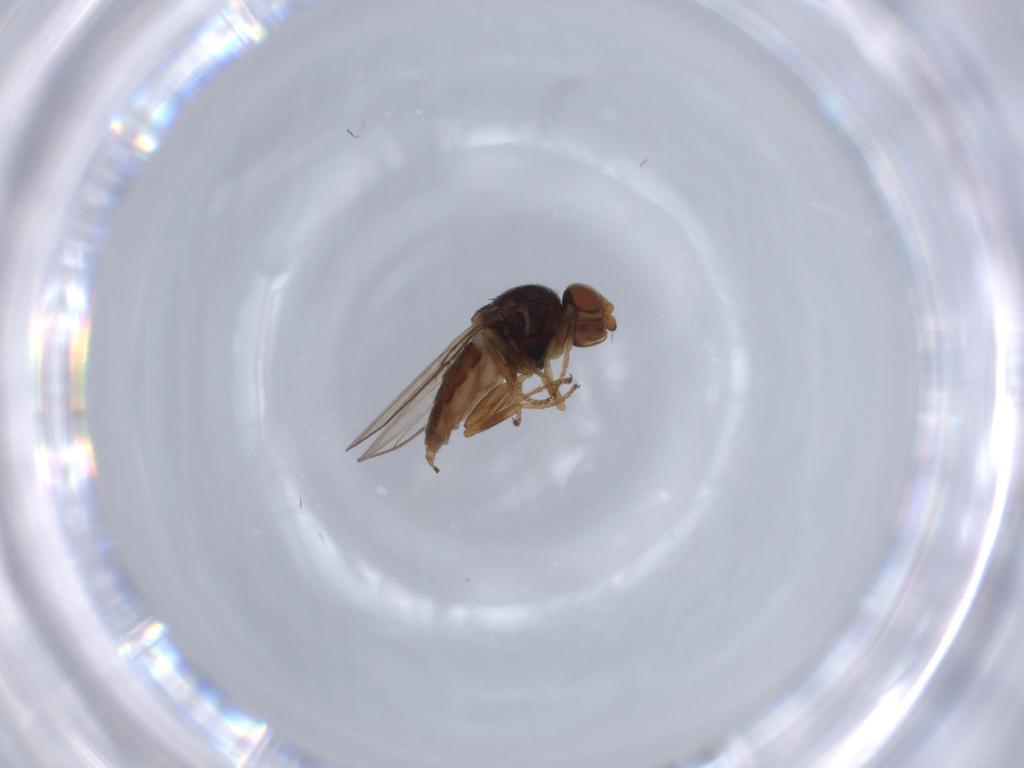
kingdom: Animalia
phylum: Arthropoda
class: Insecta
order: Diptera
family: Chloropidae
